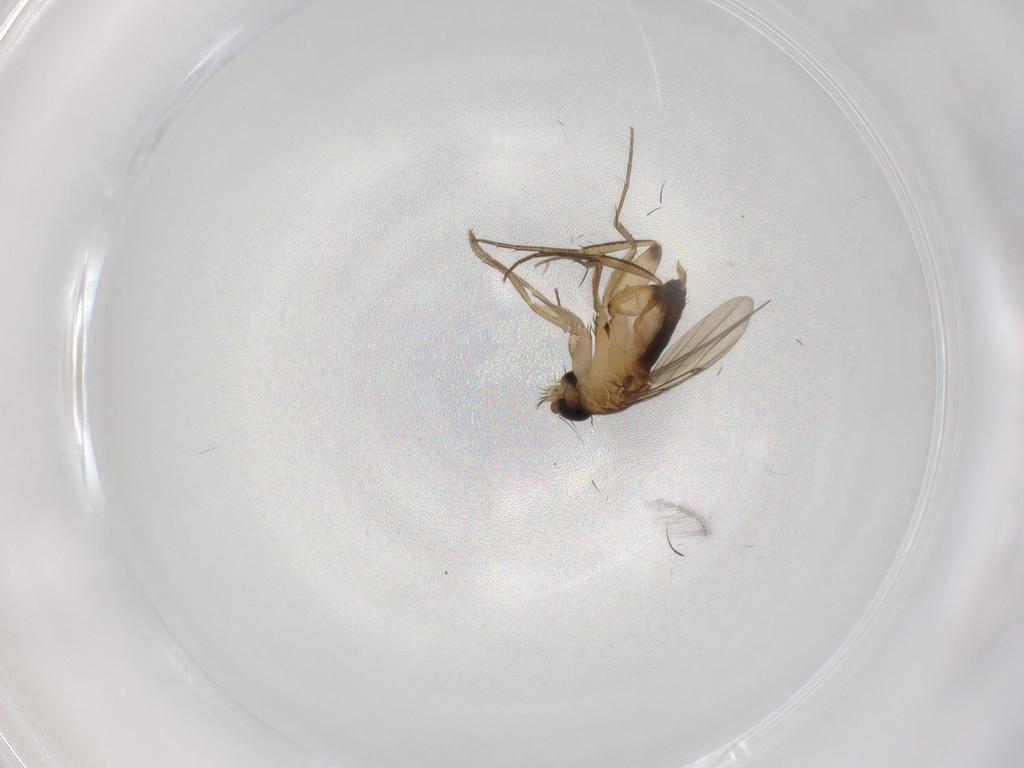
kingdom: Animalia
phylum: Arthropoda
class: Insecta
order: Diptera
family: Phoridae
